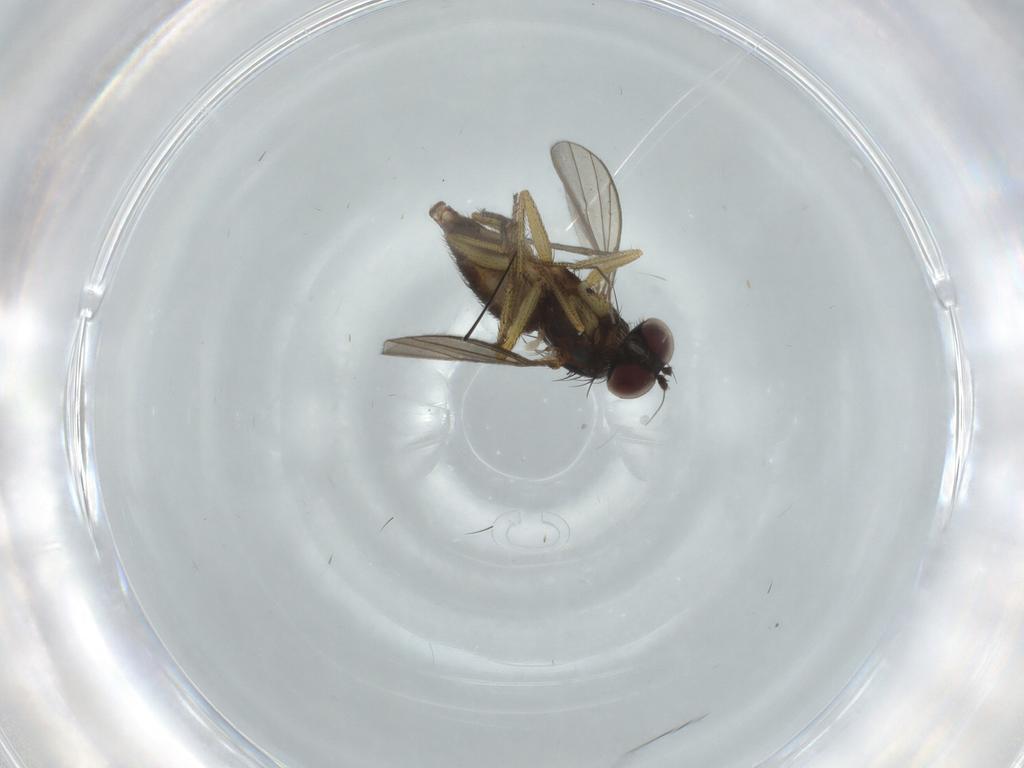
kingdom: Animalia
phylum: Arthropoda
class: Insecta
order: Diptera
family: Sciaridae
